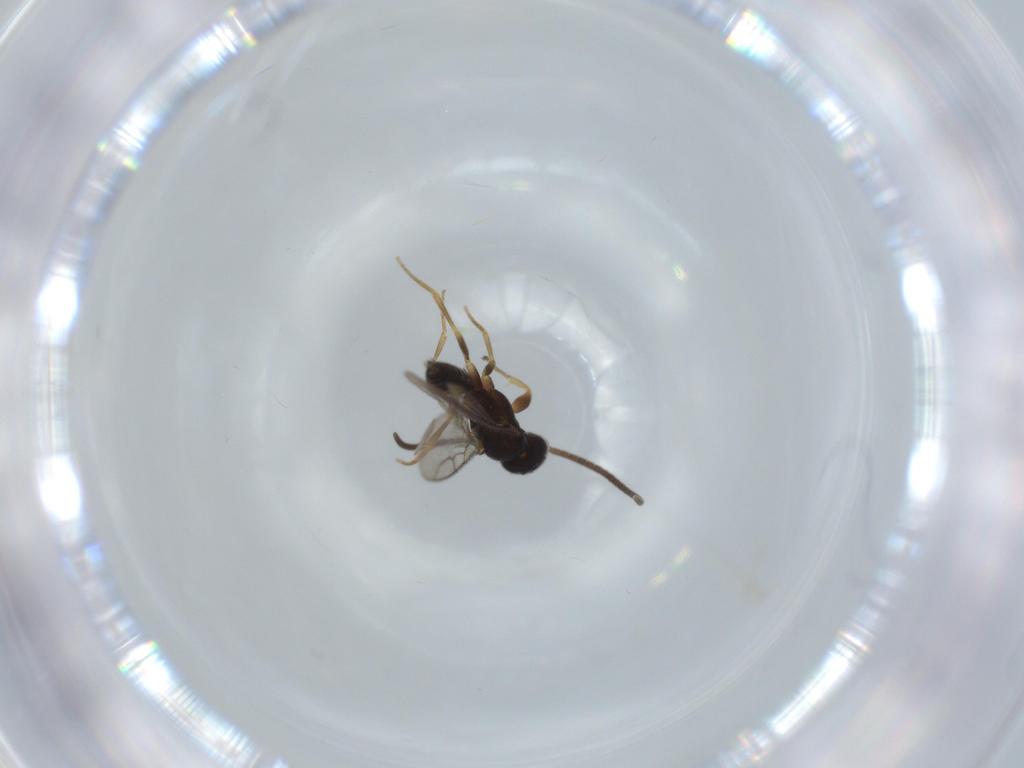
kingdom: Animalia
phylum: Arthropoda
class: Insecta
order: Hymenoptera
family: Sclerogibbidae
